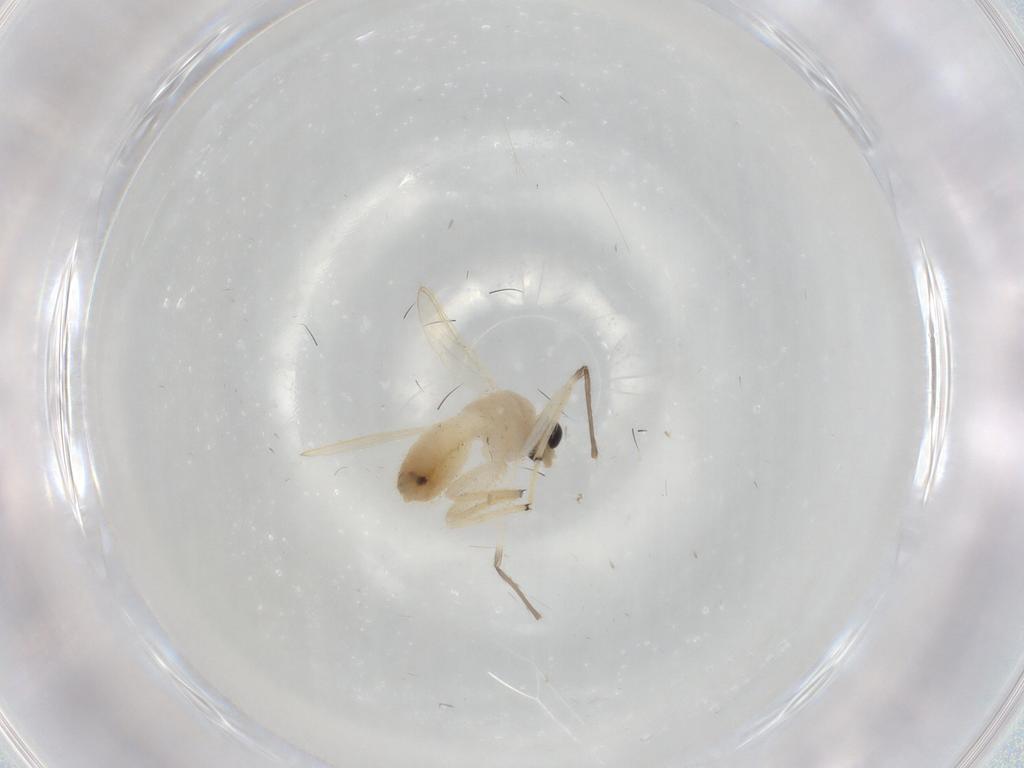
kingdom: Animalia
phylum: Arthropoda
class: Insecta
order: Diptera
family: Chironomidae
